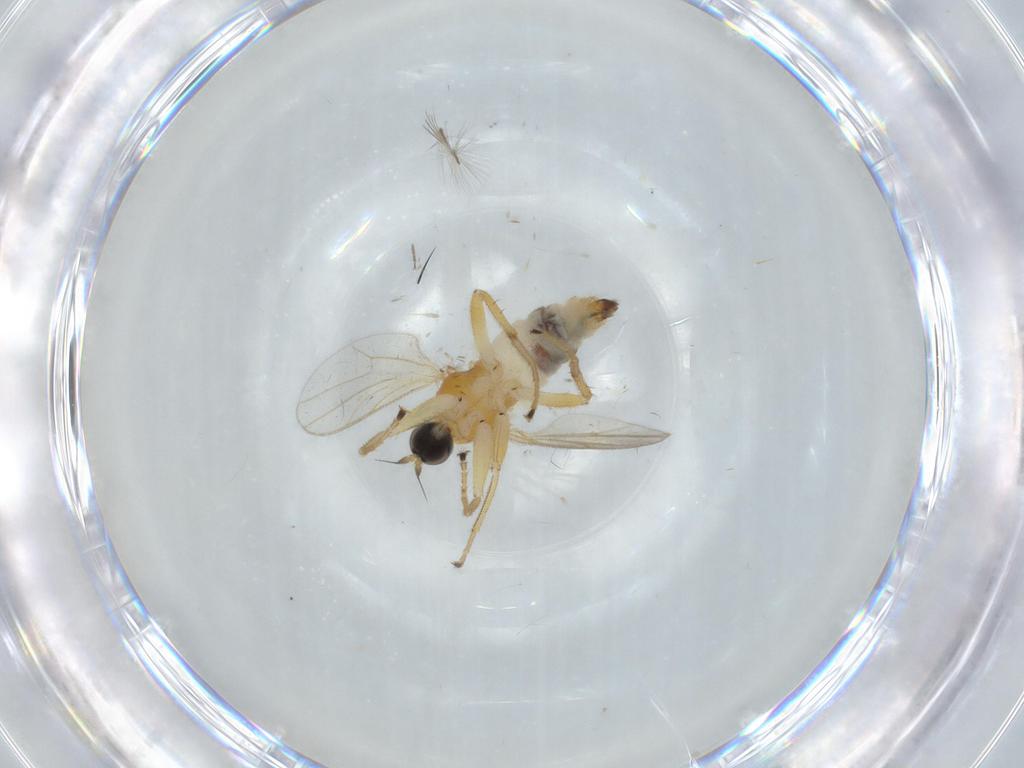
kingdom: Animalia
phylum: Arthropoda
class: Insecta
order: Diptera
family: Hybotidae
